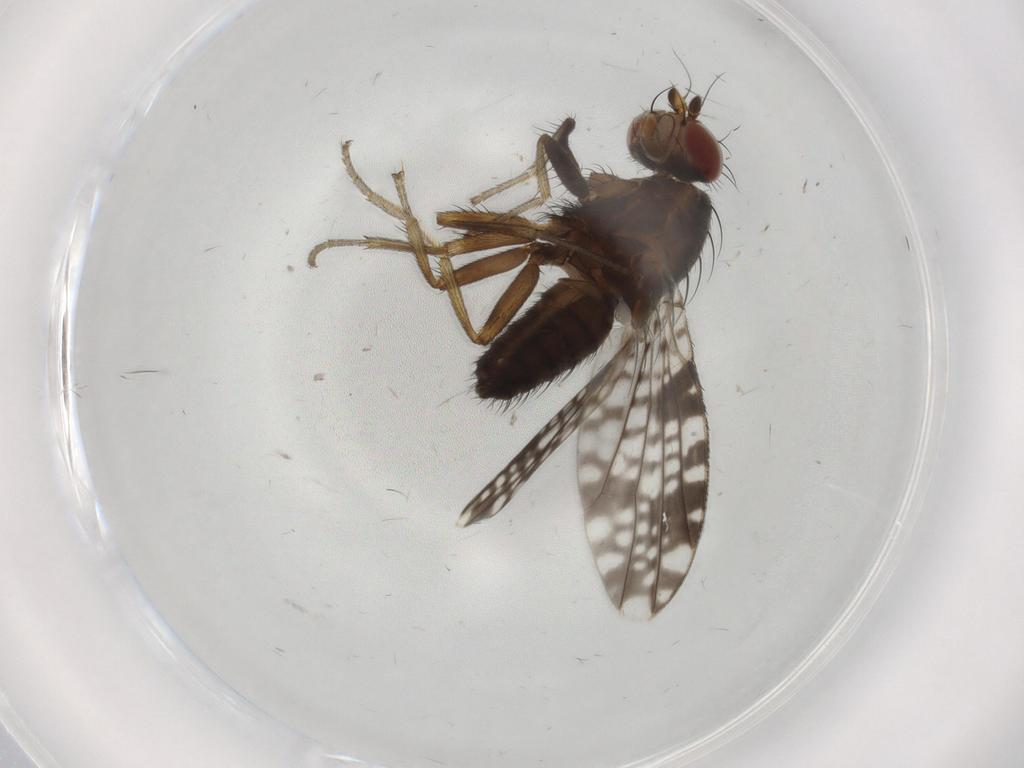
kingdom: Animalia
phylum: Arthropoda
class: Insecta
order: Diptera
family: Tephritidae
